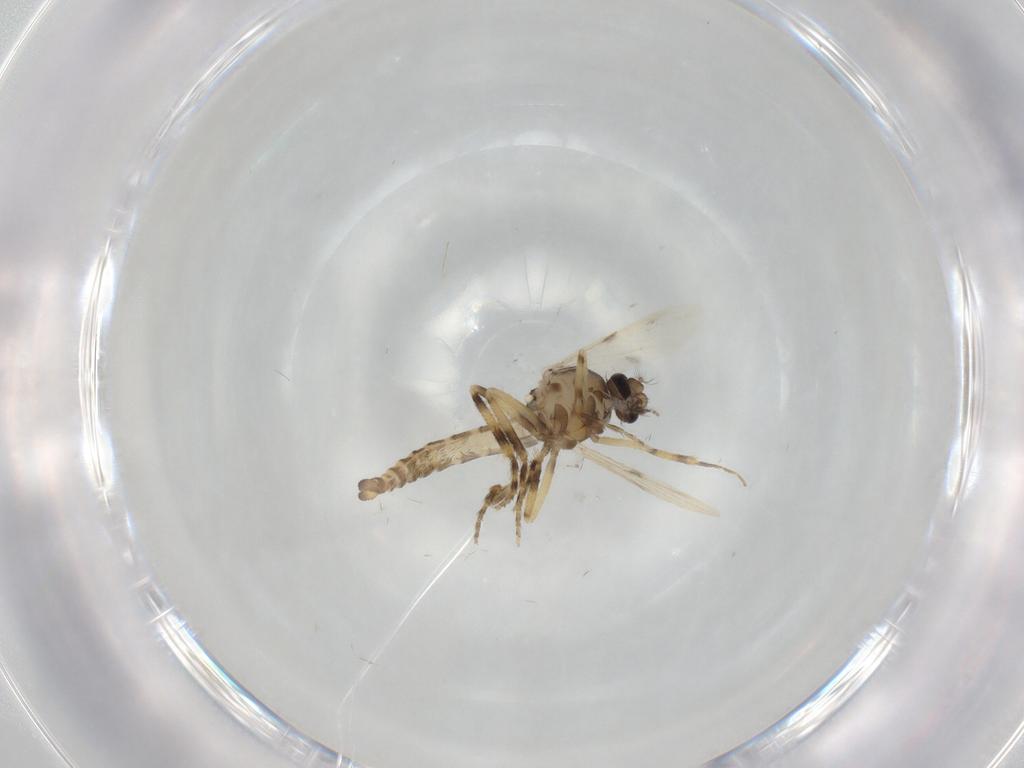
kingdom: Animalia
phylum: Arthropoda
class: Insecta
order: Diptera
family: Ceratopogonidae
